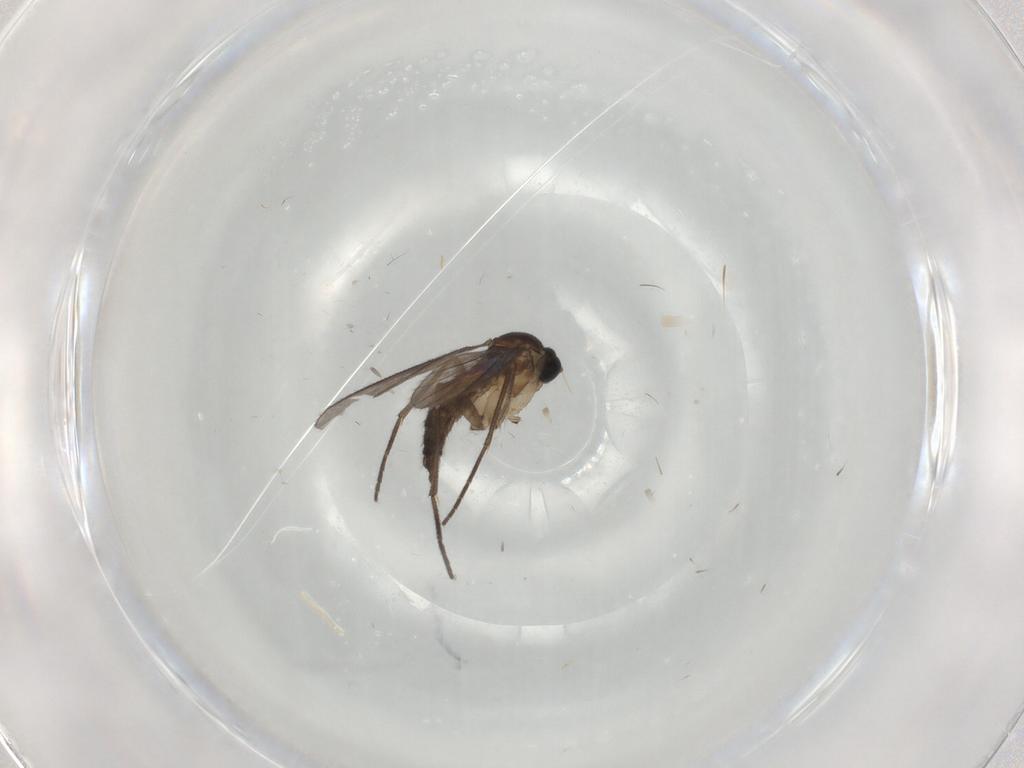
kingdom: Animalia
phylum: Arthropoda
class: Insecta
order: Diptera
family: Sciaridae
